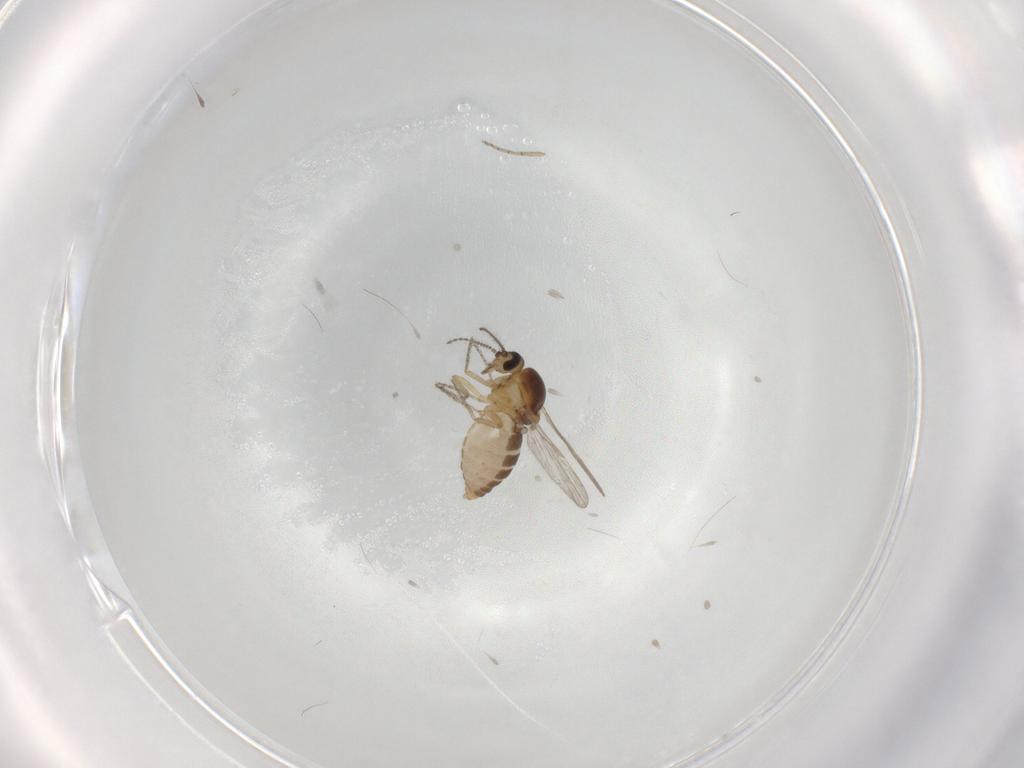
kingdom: Animalia
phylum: Arthropoda
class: Insecta
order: Diptera
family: Ceratopogonidae
